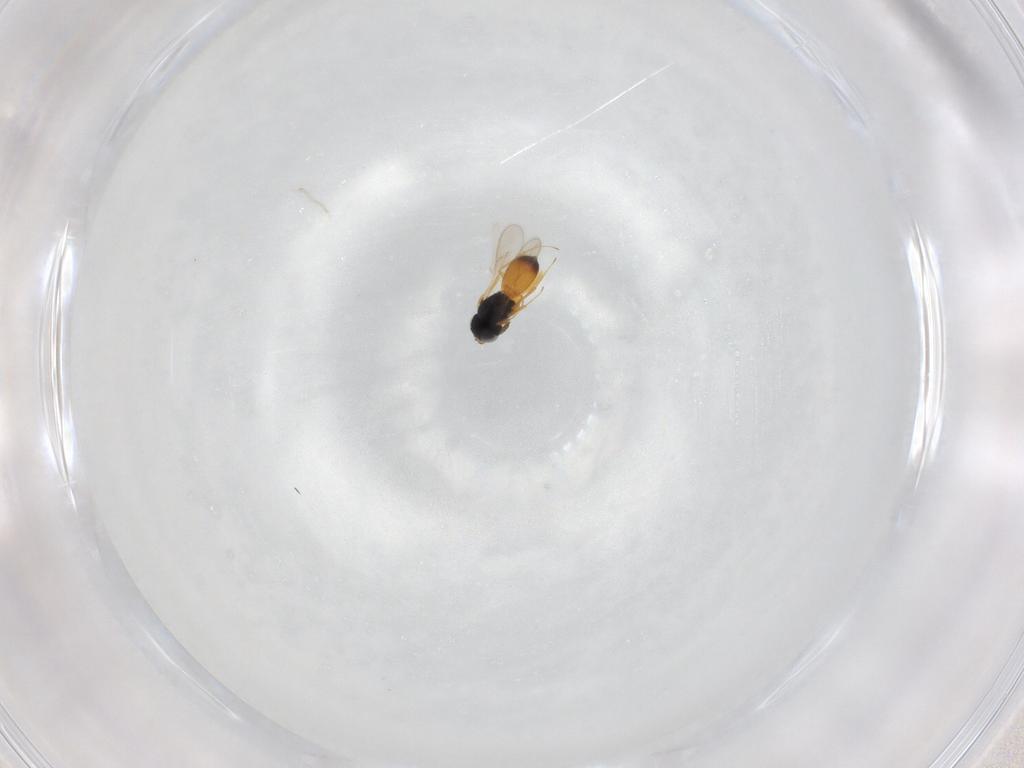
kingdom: Animalia
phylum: Arthropoda
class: Insecta
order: Hymenoptera
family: Scelionidae
